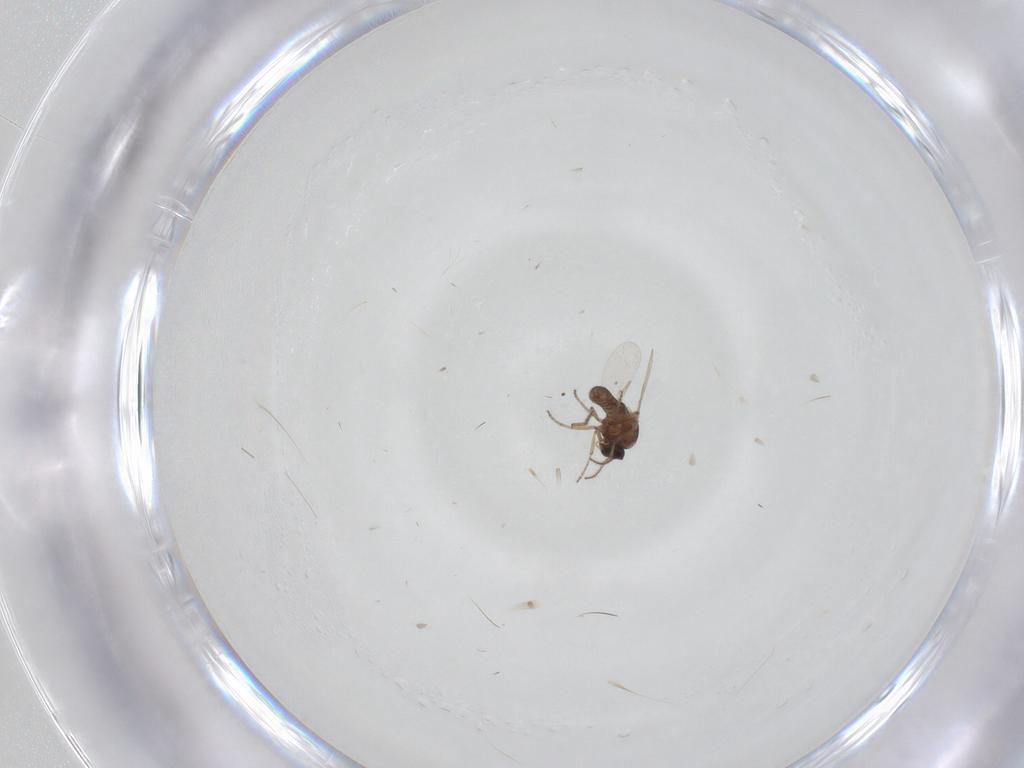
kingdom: Animalia
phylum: Arthropoda
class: Insecta
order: Diptera
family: Ceratopogonidae
